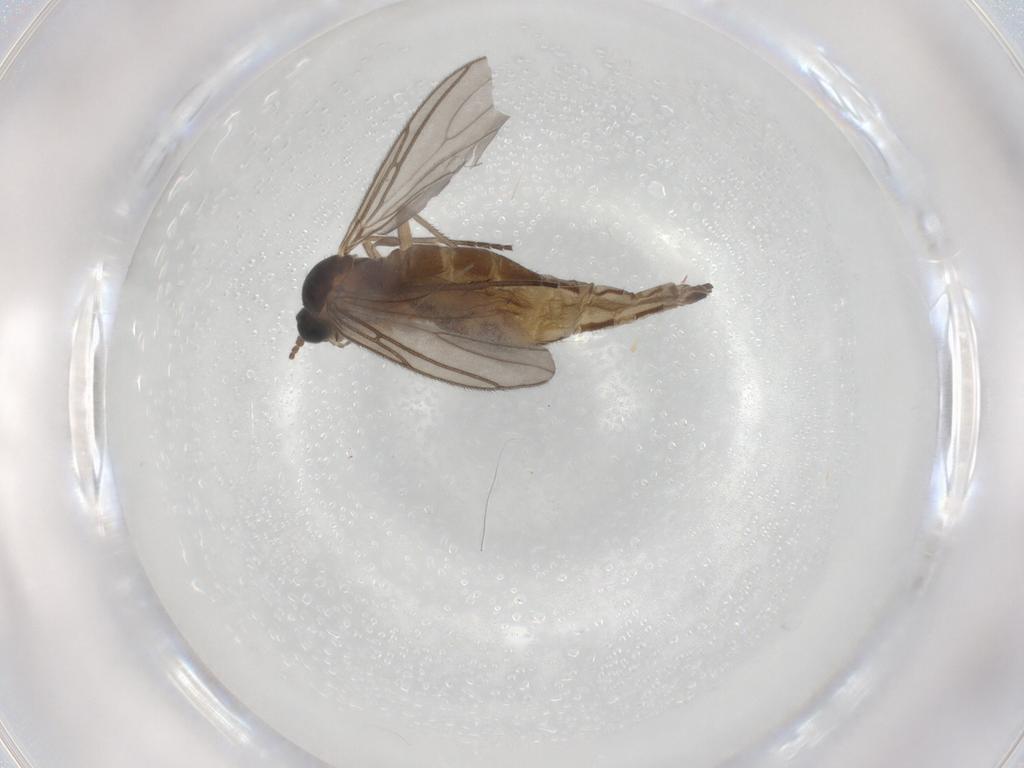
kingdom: Animalia
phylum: Arthropoda
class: Insecta
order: Diptera
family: Sciaridae
